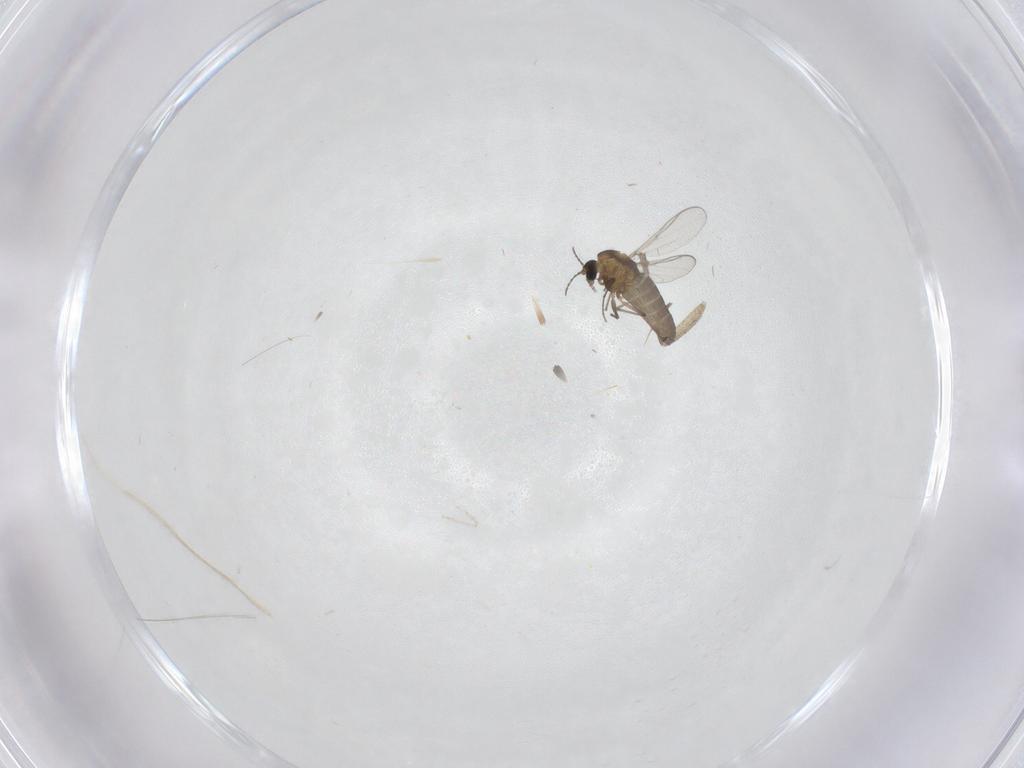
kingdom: Animalia
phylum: Arthropoda
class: Insecta
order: Diptera
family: Chironomidae
